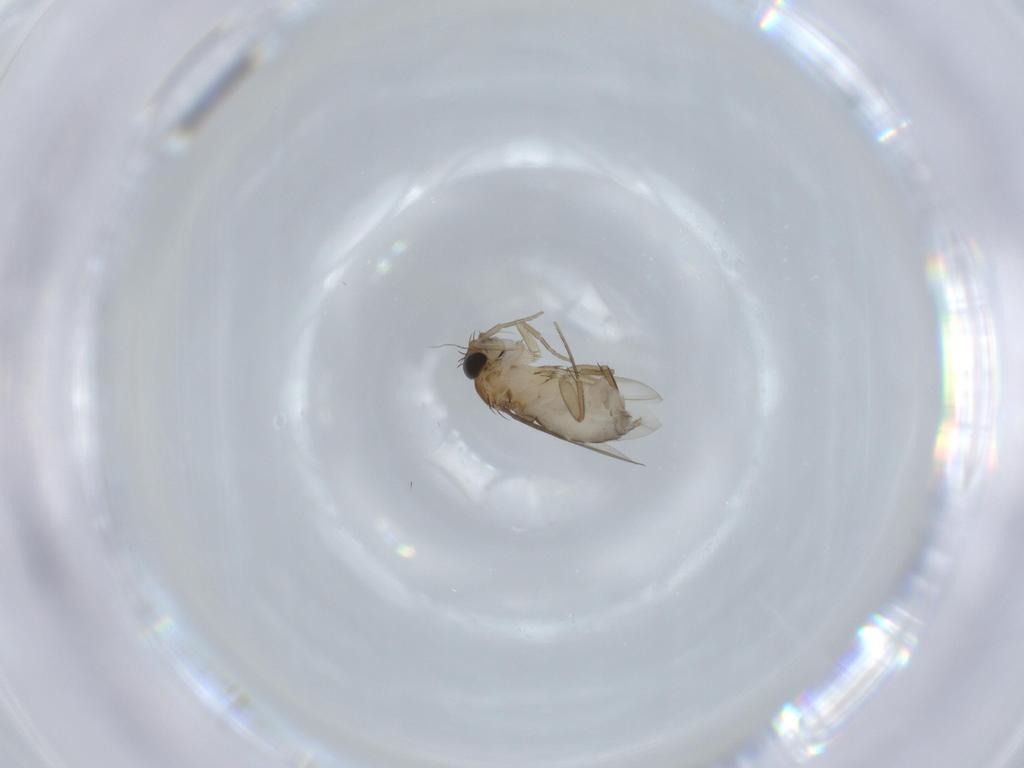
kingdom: Animalia
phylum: Arthropoda
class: Insecta
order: Diptera
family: Phoridae
